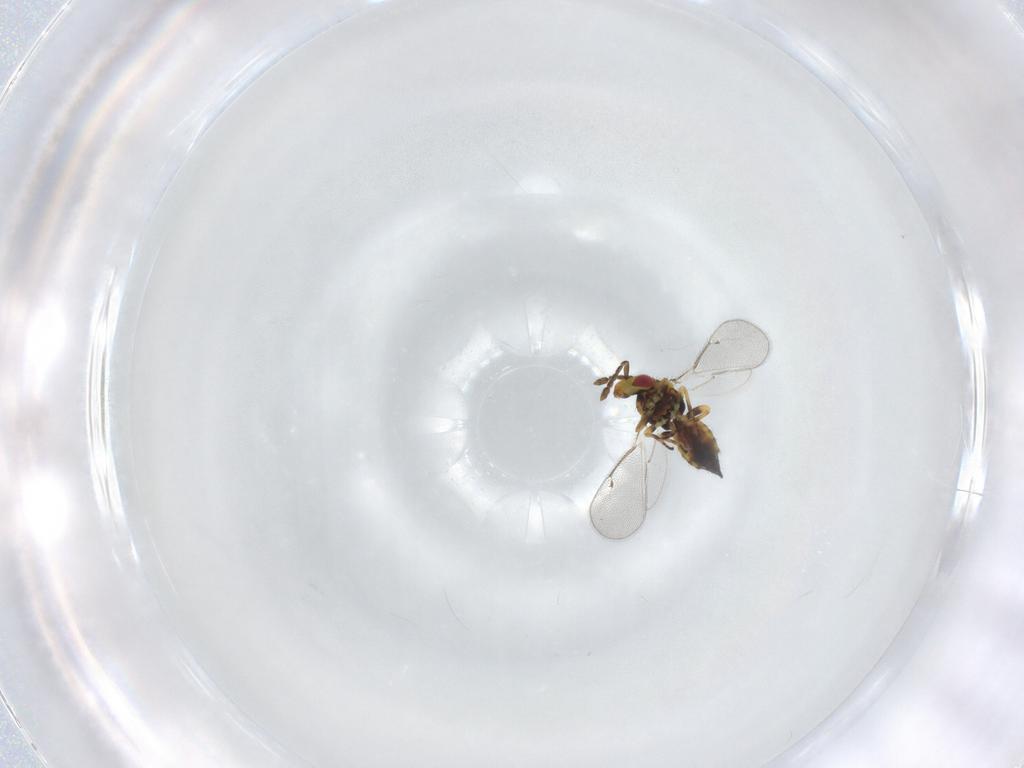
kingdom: Animalia
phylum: Arthropoda
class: Insecta
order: Hymenoptera
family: Eulophidae
